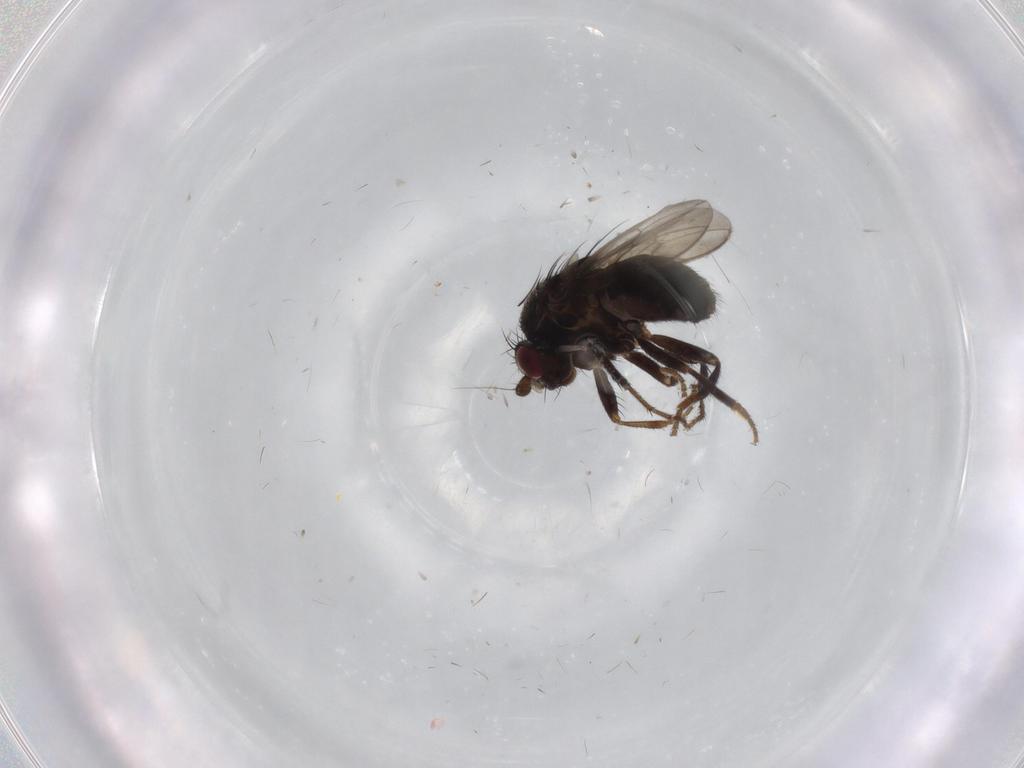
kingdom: Animalia
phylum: Arthropoda
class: Insecta
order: Diptera
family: Sphaeroceridae
